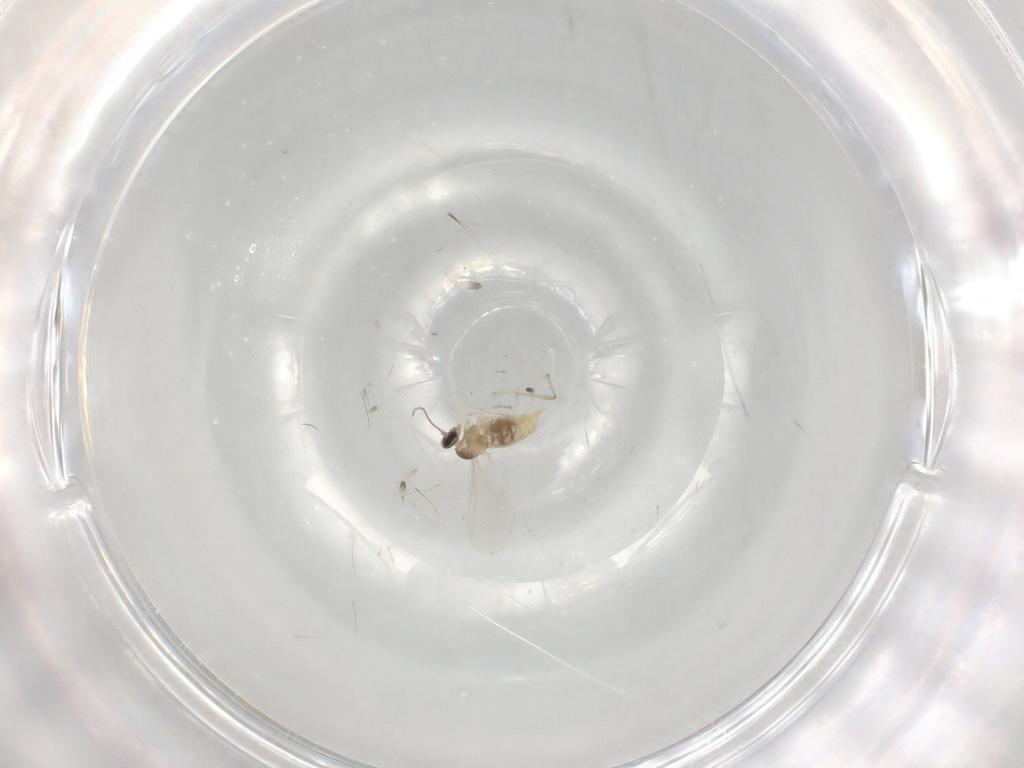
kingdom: Animalia
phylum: Arthropoda
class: Insecta
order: Diptera
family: Cecidomyiidae
